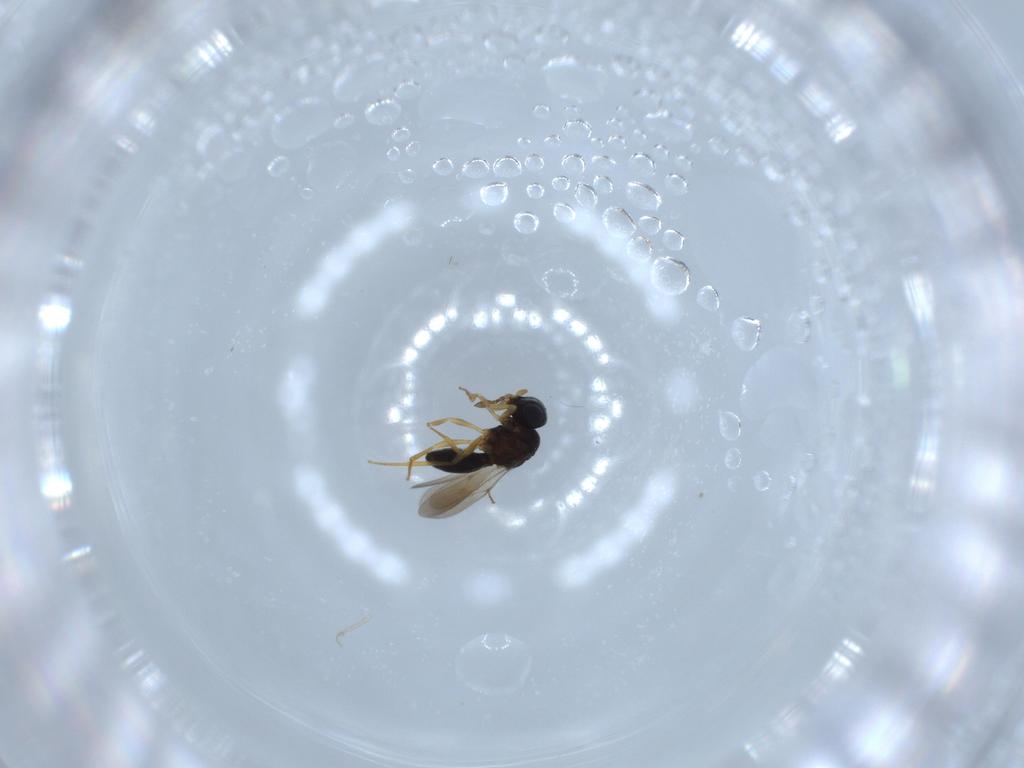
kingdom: Animalia
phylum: Arthropoda
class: Insecta
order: Hymenoptera
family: Scelionidae
